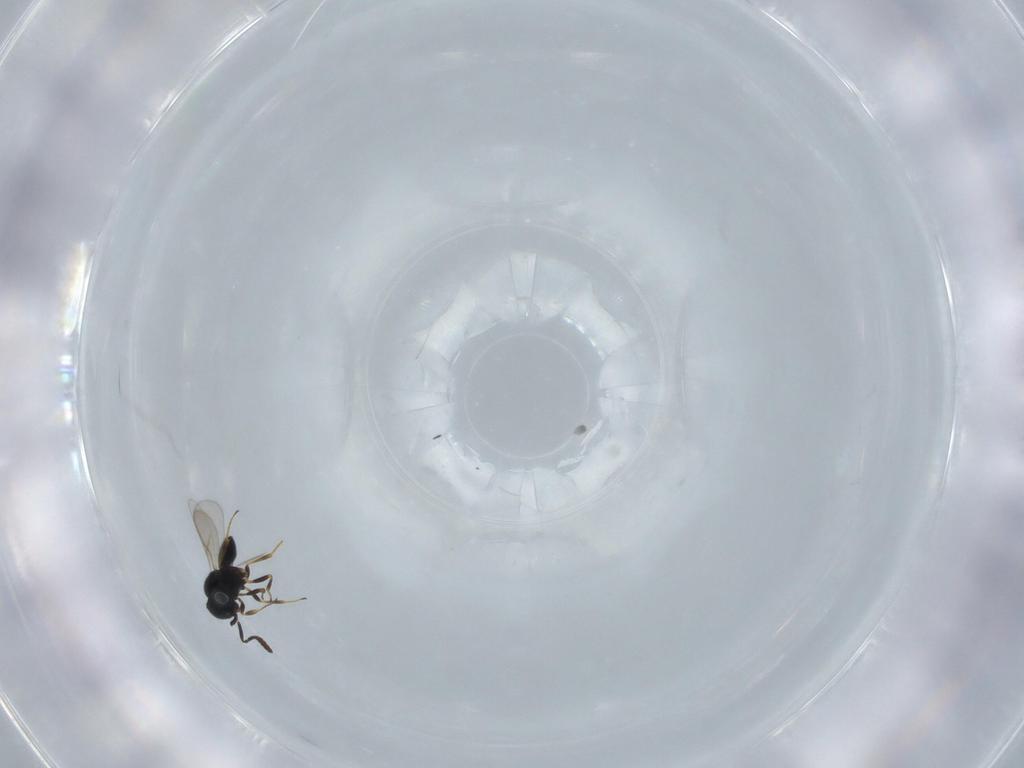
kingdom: Animalia
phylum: Arthropoda
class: Insecta
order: Hymenoptera
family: Scelionidae
